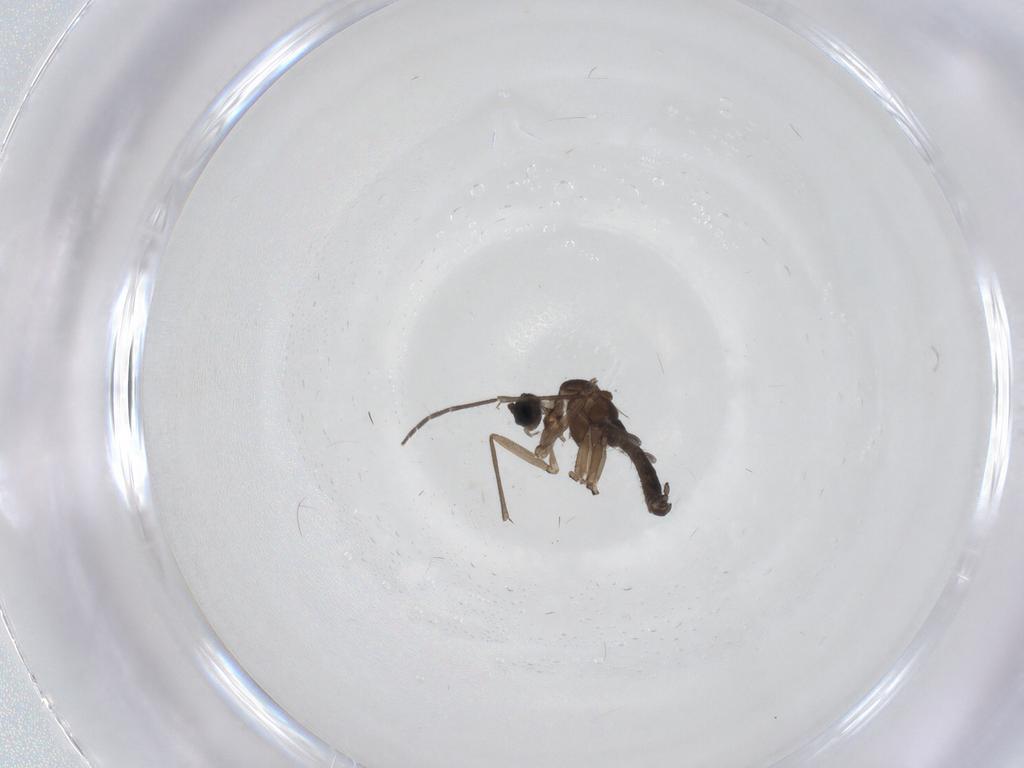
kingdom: Animalia
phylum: Arthropoda
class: Insecta
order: Diptera
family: Sciaridae
